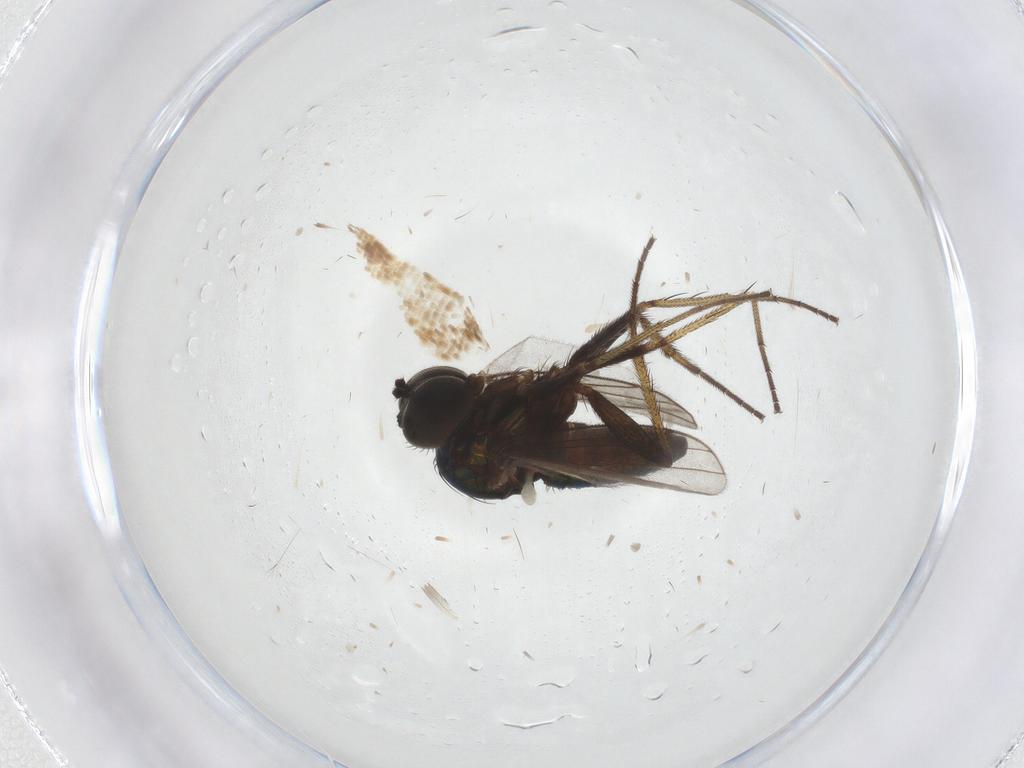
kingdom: Animalia
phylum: Arthropoda
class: Insecta
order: Diptera
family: Dolichopodidae
